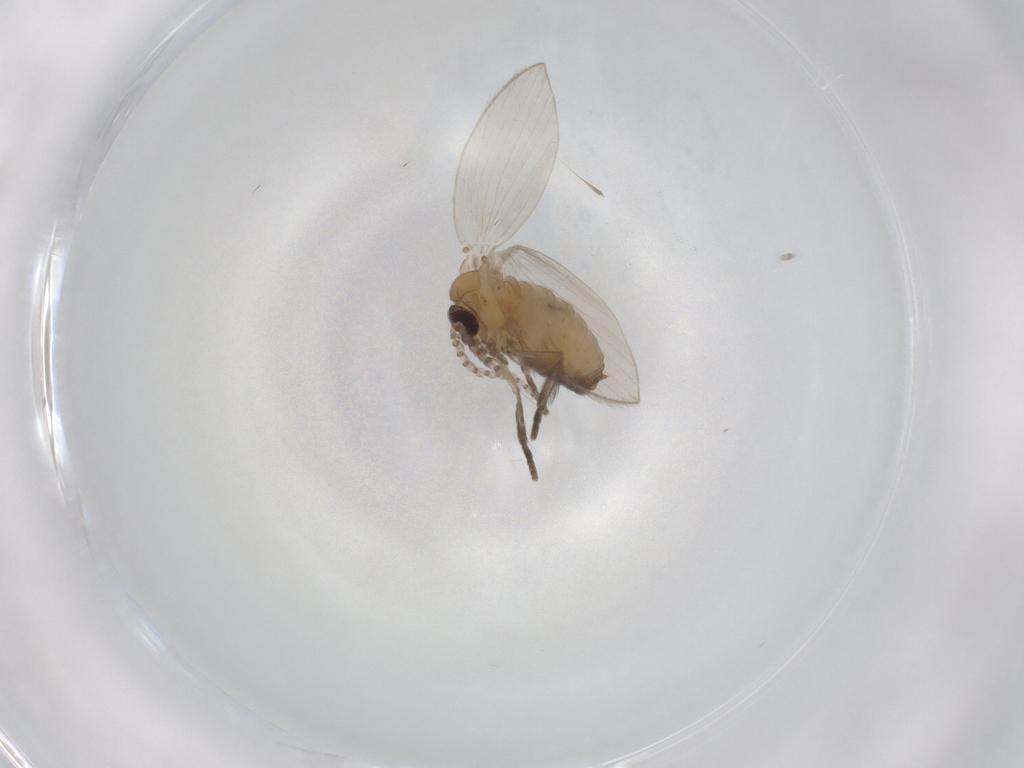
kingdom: Animalia
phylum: Arthropoda
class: Insecta
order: Diptera
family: Psychodidae
